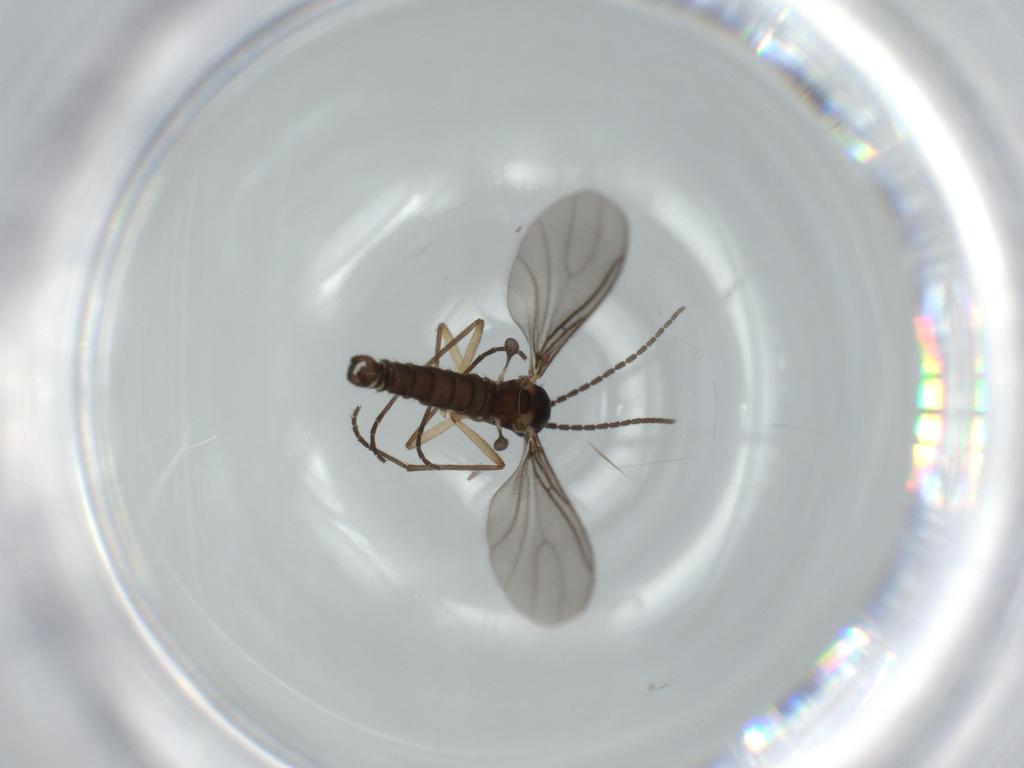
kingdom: Animalia
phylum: Arthropoda
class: Insecta
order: Diptera
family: Sciaridae
